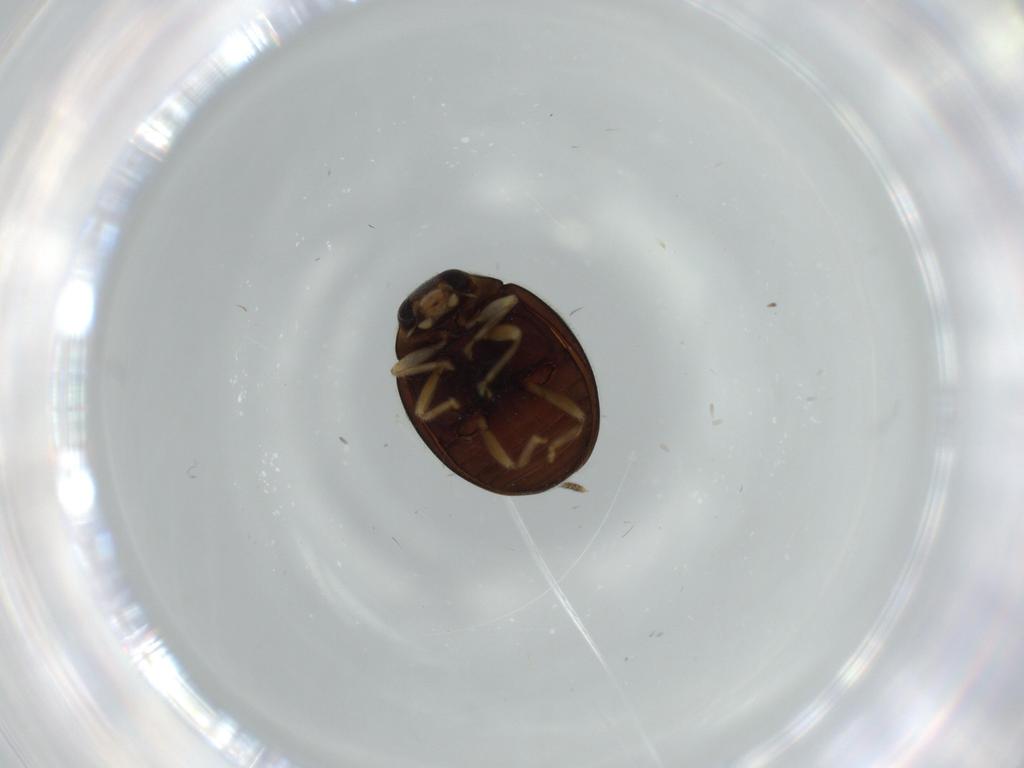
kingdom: Animalia
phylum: Arthropoda
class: Insecta
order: Coleoptera
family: Coccinellidae
